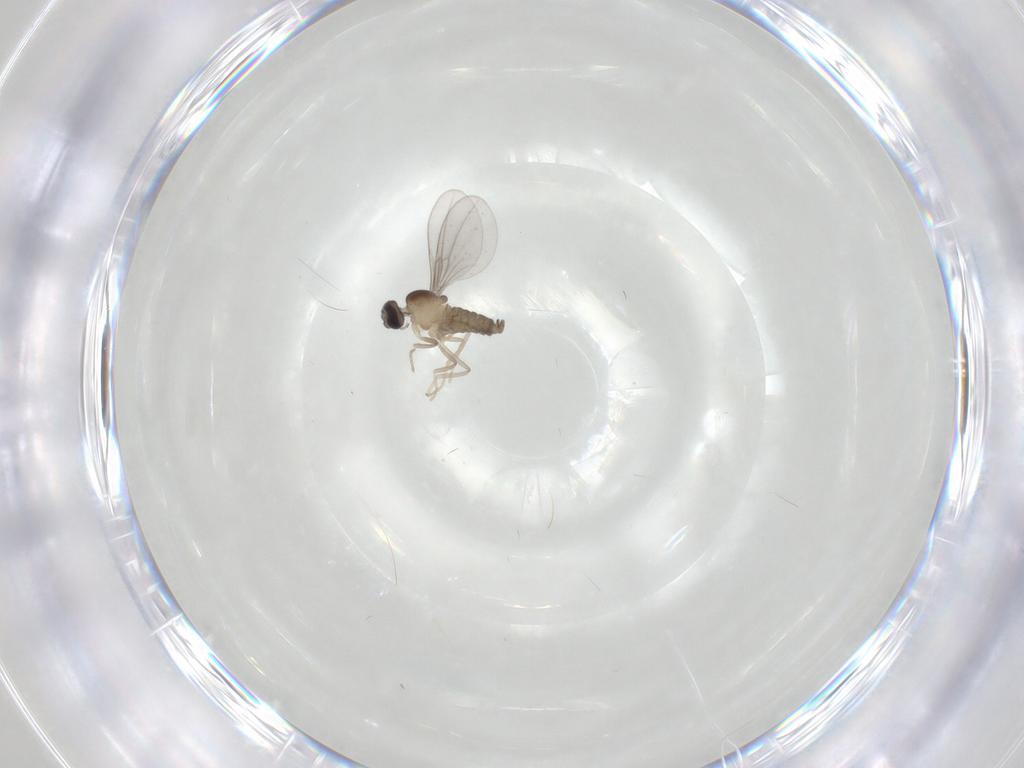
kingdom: Animalia
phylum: Arthropoda
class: Insecta
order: Diptera
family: Cecidomyiidae
